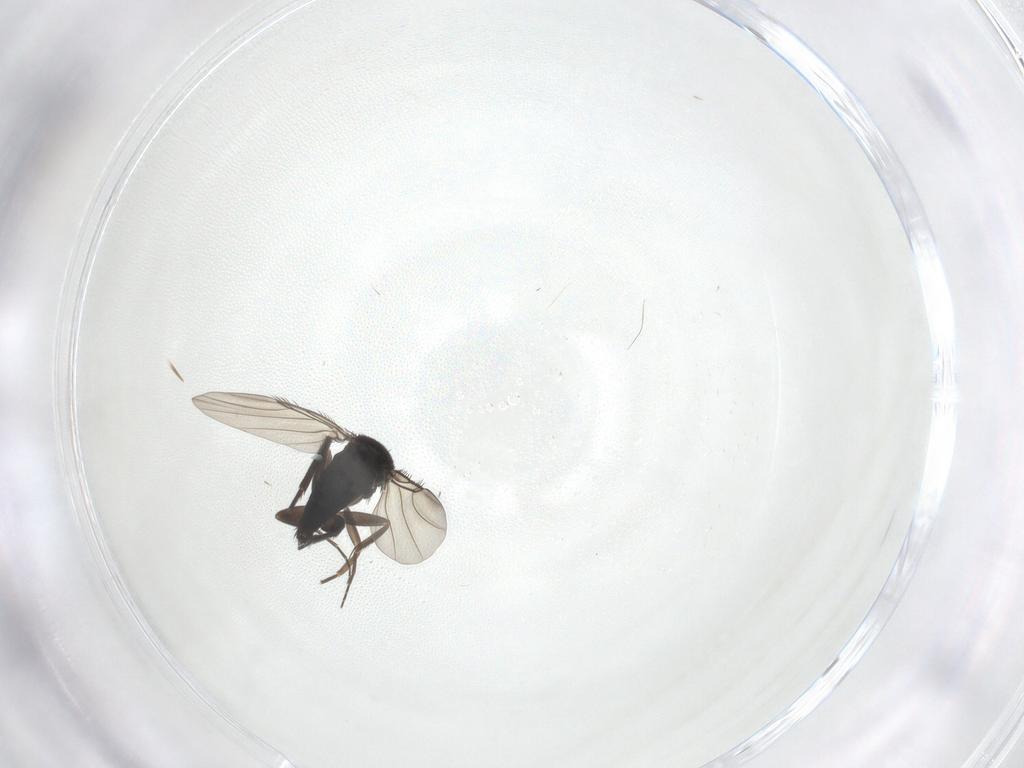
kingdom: Animalia
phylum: Arthropoda
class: Insecta
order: Diptera
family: Phoridae
